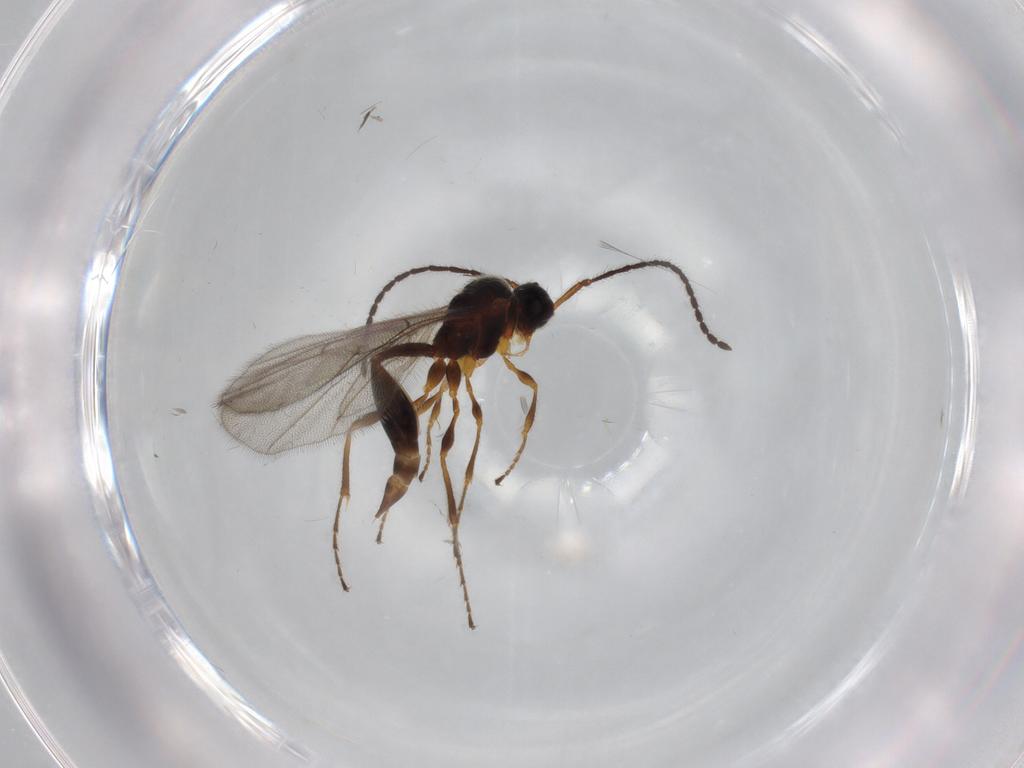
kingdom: Animalia
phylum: Arthropoda
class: Insecta
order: Hymenoptera
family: Diapriidae
